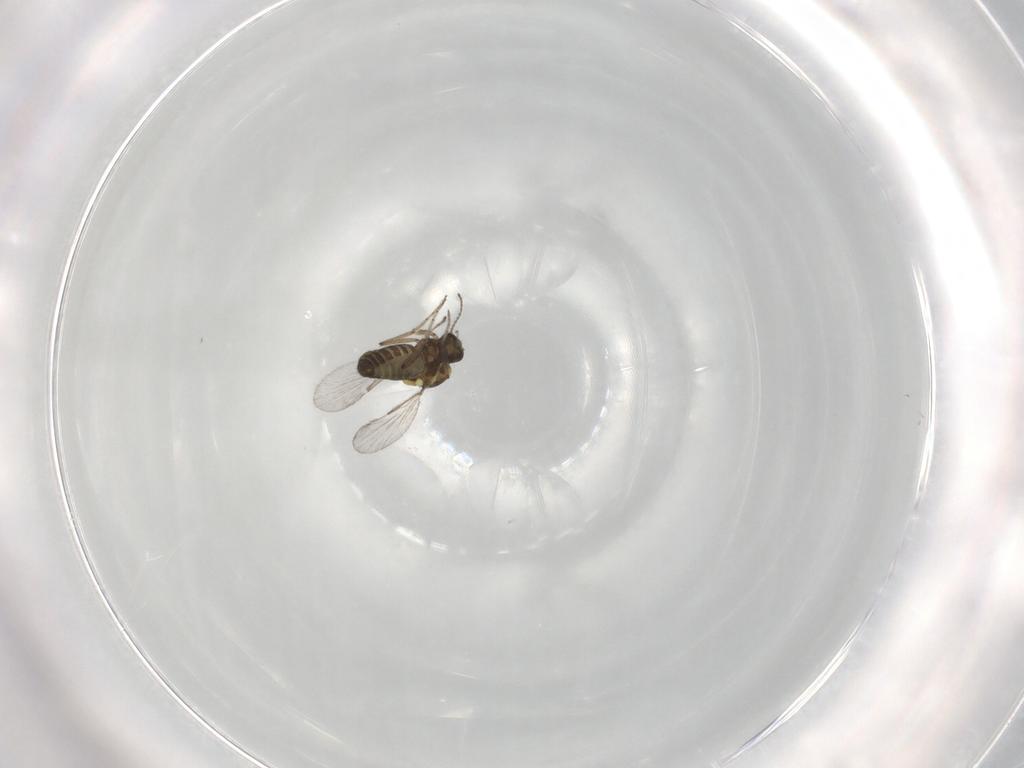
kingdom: Animalia
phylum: Arthropoda
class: Insecta
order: Diptera
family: Ceratopogonidae
